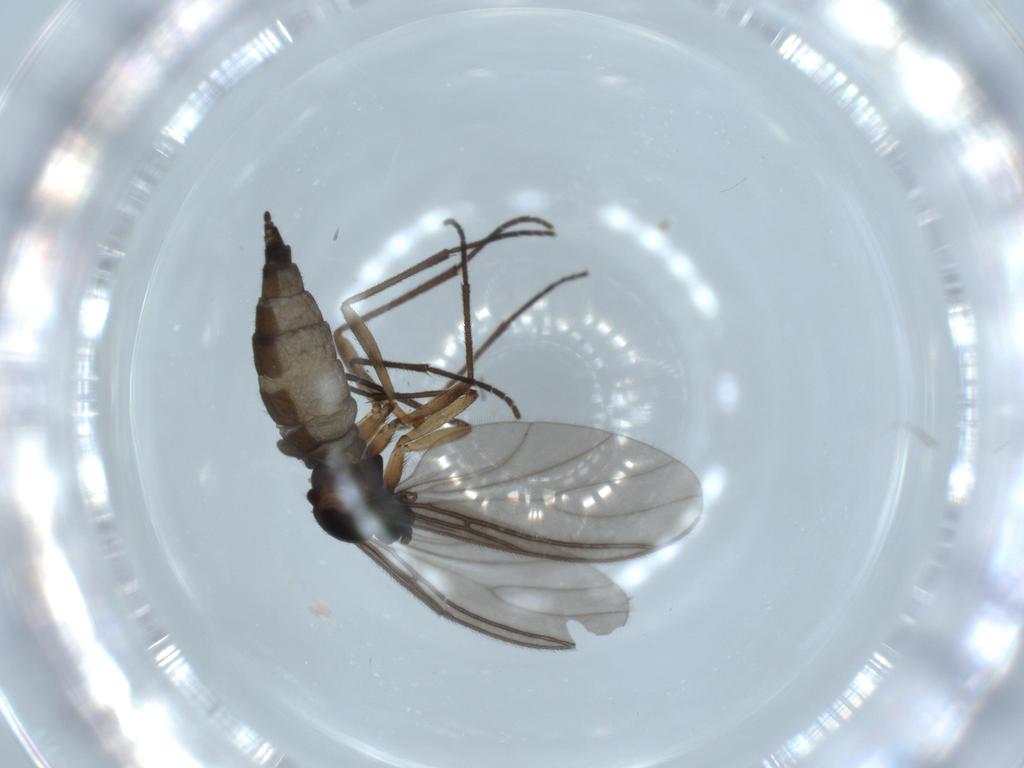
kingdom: Animalia
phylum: Arthropoda
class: Insecta
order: Diptera
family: Sciaridae
